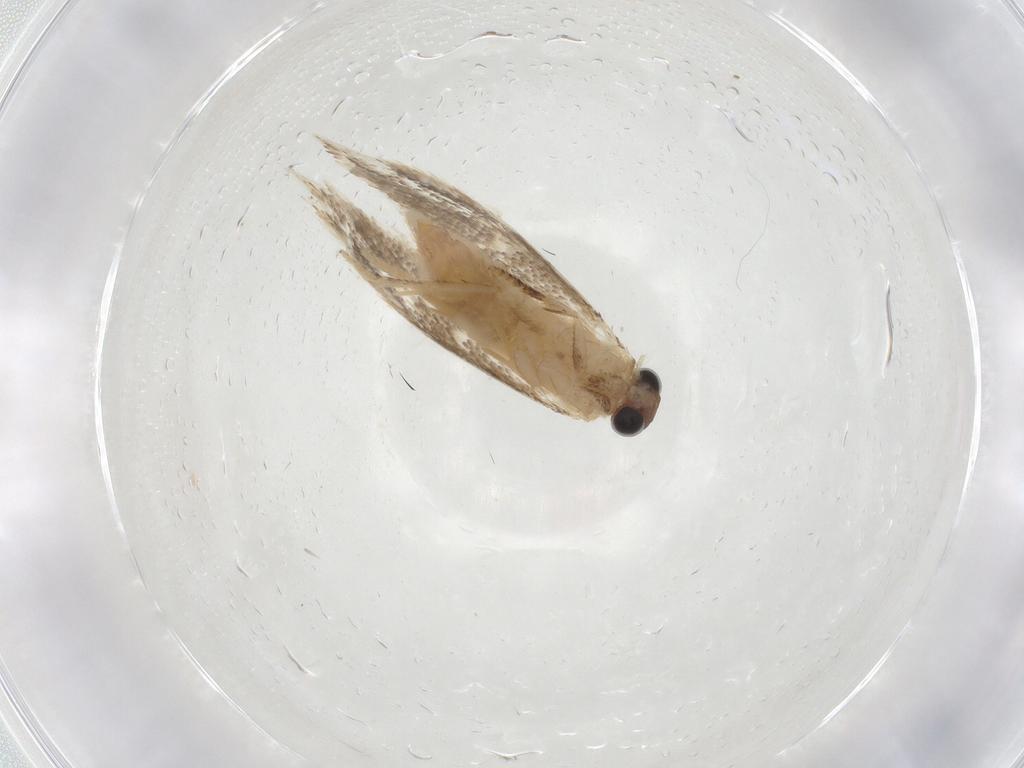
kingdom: Animalia
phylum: Arthropoda
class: Insecta
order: Lepidoptera
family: Tineidae
